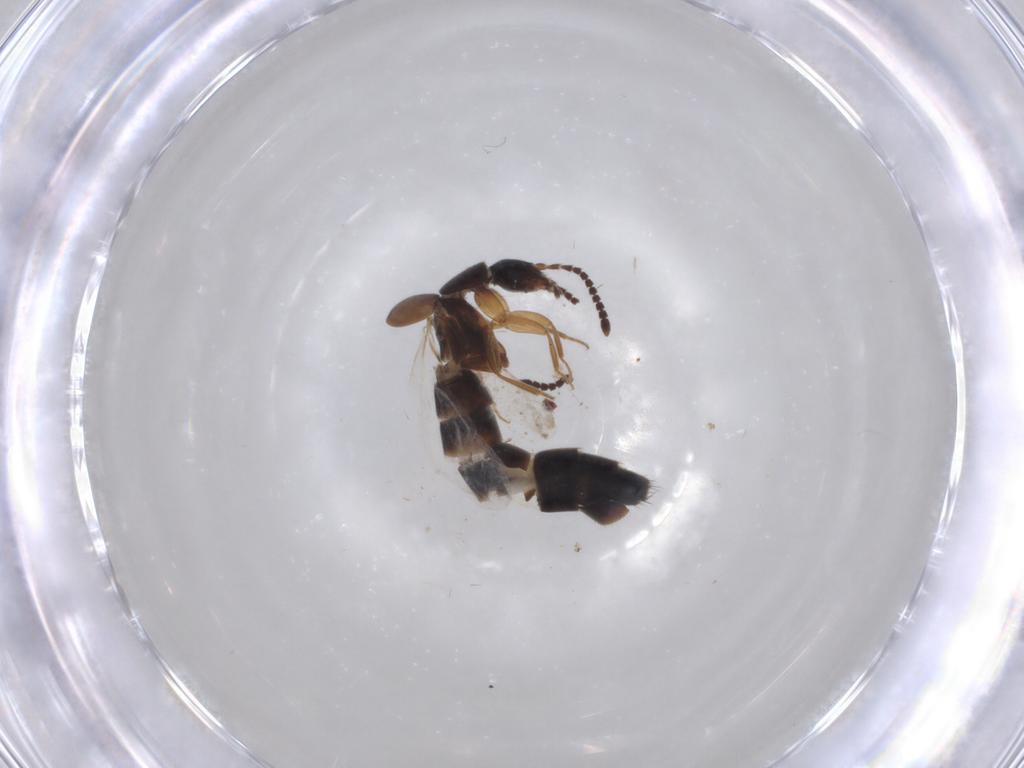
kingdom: Animalia
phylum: Arthropoda
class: Insecta
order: Coleoptera
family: Staphylinidae
